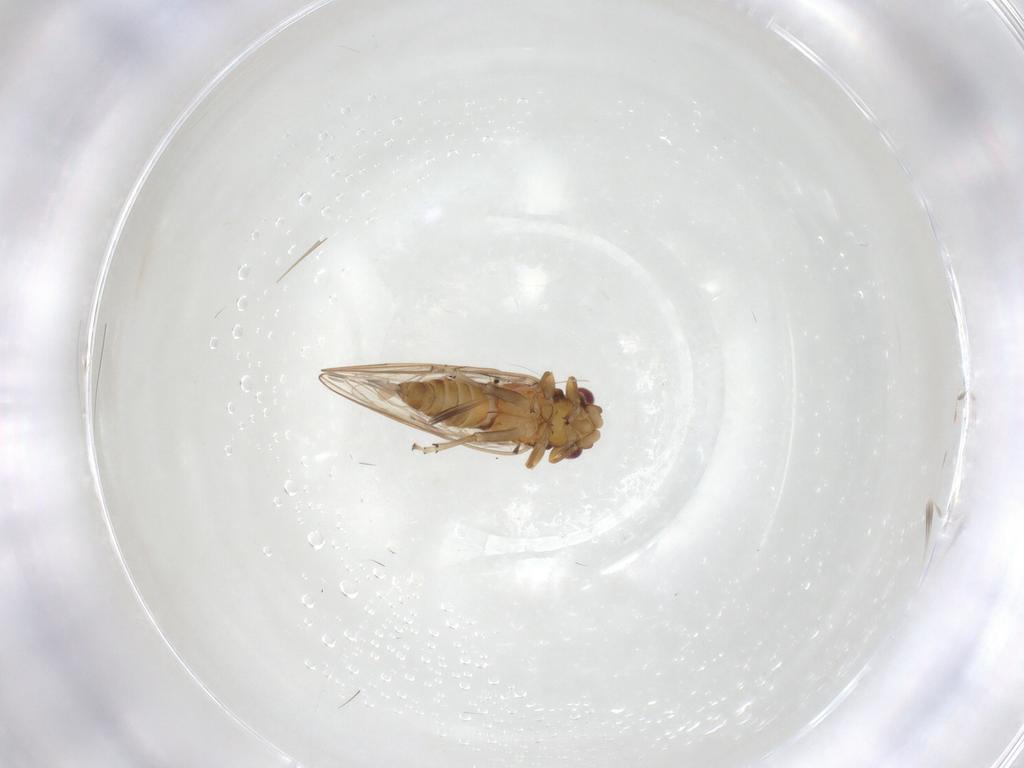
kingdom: Animalia
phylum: Arthropoda
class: Insecta
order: Hemiptera
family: Psyllidae
